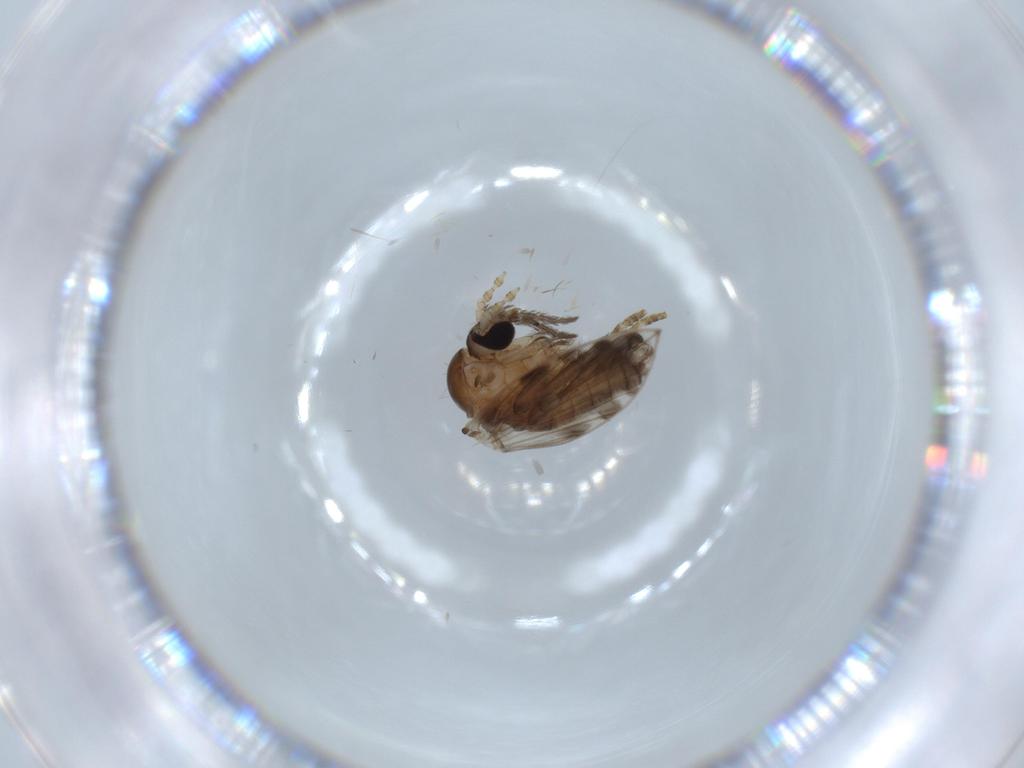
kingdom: Animalia
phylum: Arthropoda
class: Insecta
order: Diptera
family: Psychodidae
